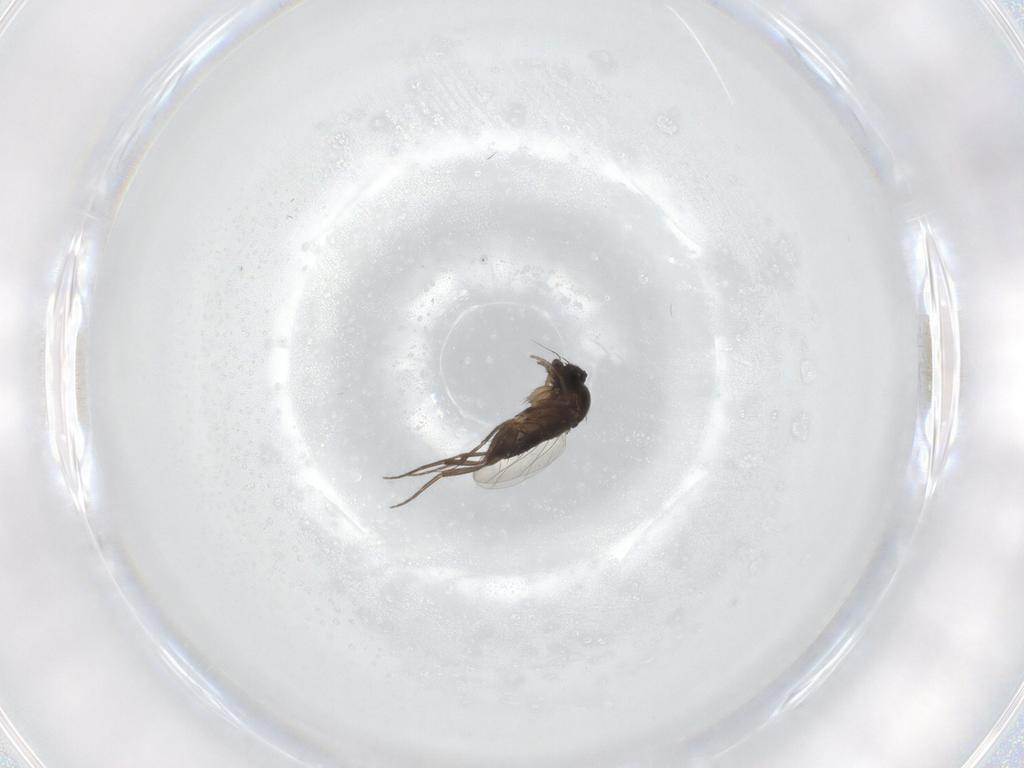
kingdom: Animalia
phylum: Arthropoda
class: Insecta
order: Diptera
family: Phoridae
